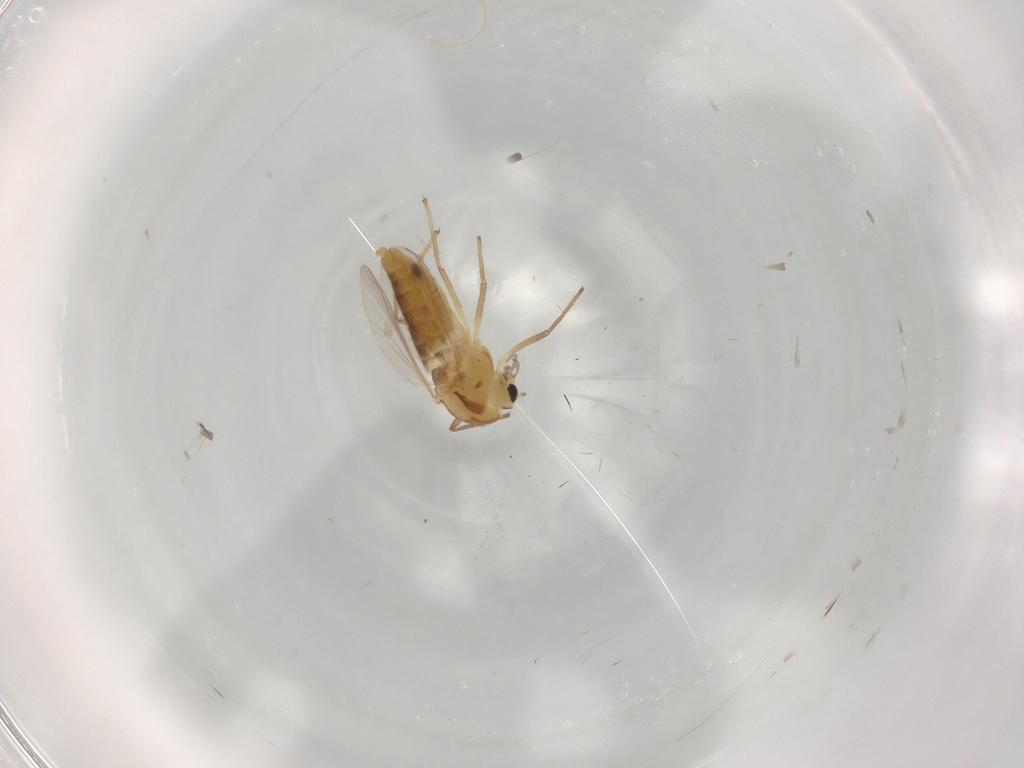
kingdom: Animalia
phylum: Arthropoda
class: Insecta
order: Diptera
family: Chironomidae
